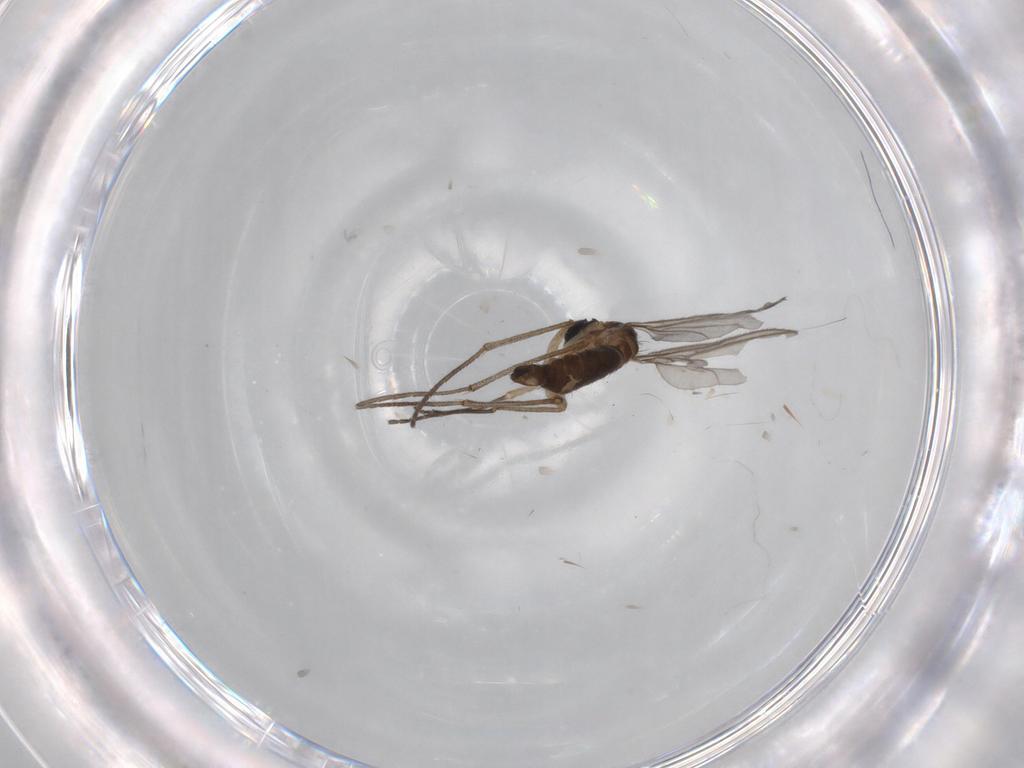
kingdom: Animalia
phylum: Arthropoda
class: Insecta
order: Diptera
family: Sciaridae
